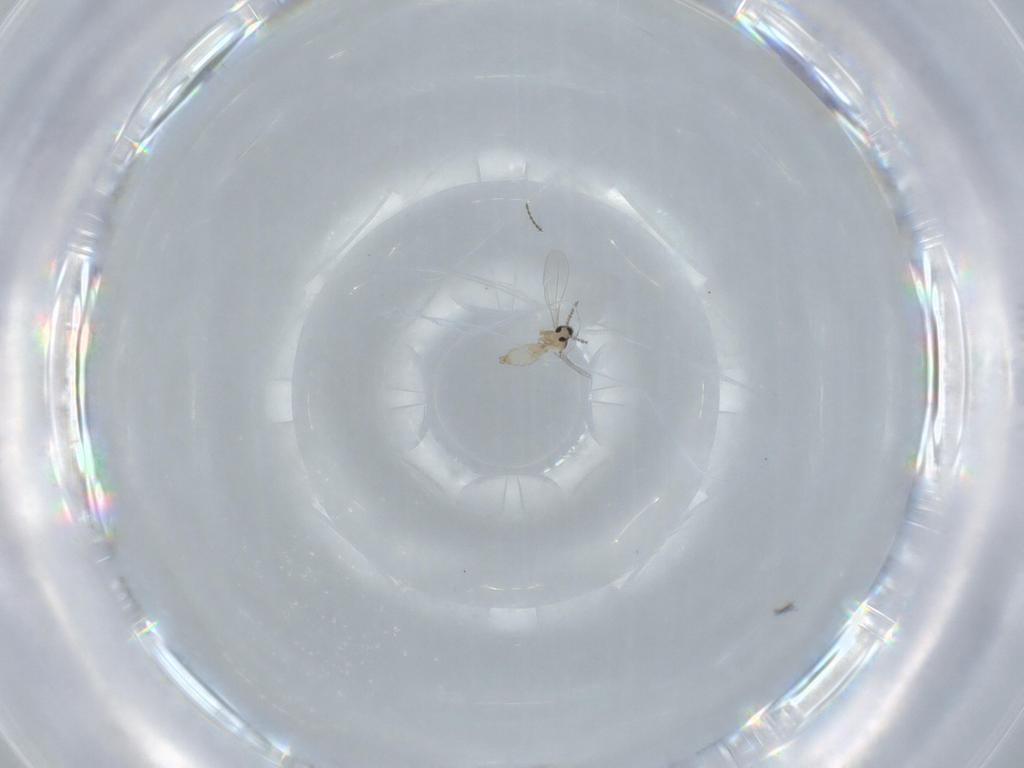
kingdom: Animalia
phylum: Arthropoda
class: Insecta
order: Diptera
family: Cecidomyiidae
